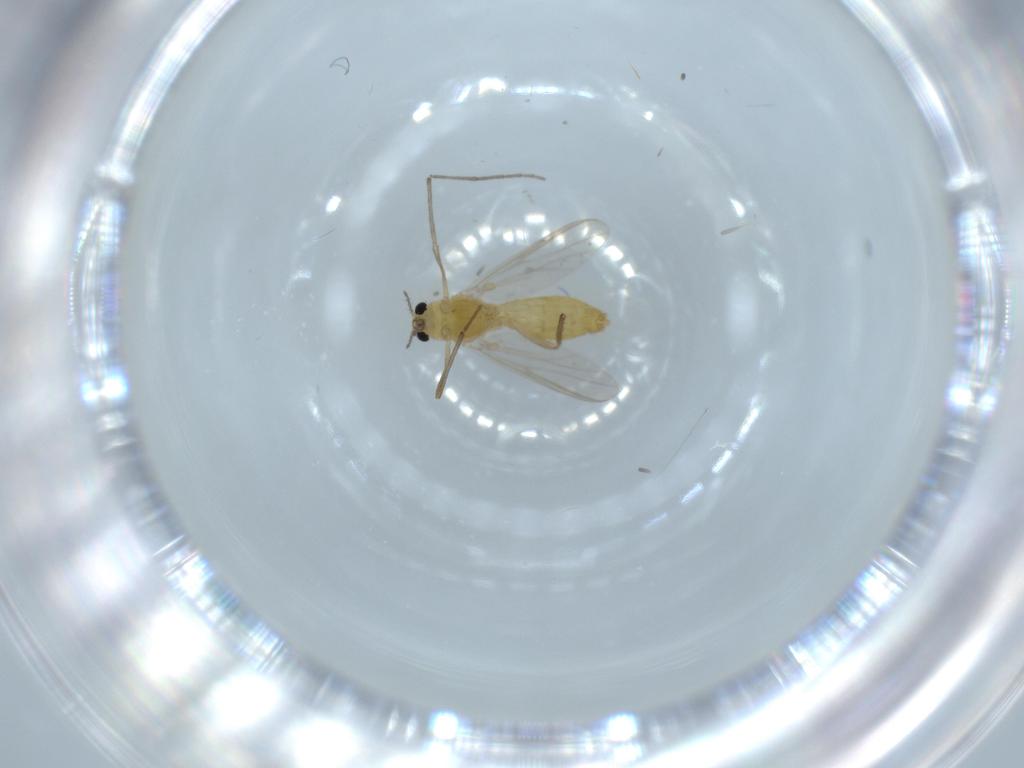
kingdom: Animalia
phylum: Arthropoda
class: Insecta
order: Diptera
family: Chironomidae
